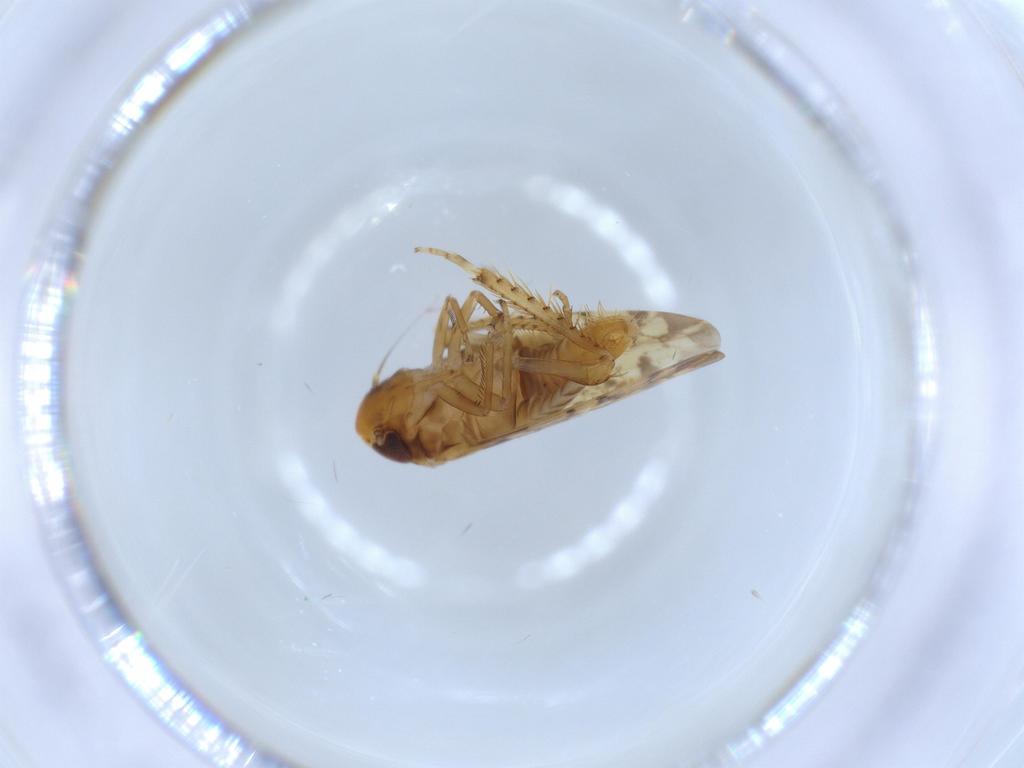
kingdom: Animalia
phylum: Arthropoda
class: Insecta
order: Hemiptera
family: Cicadellidae
